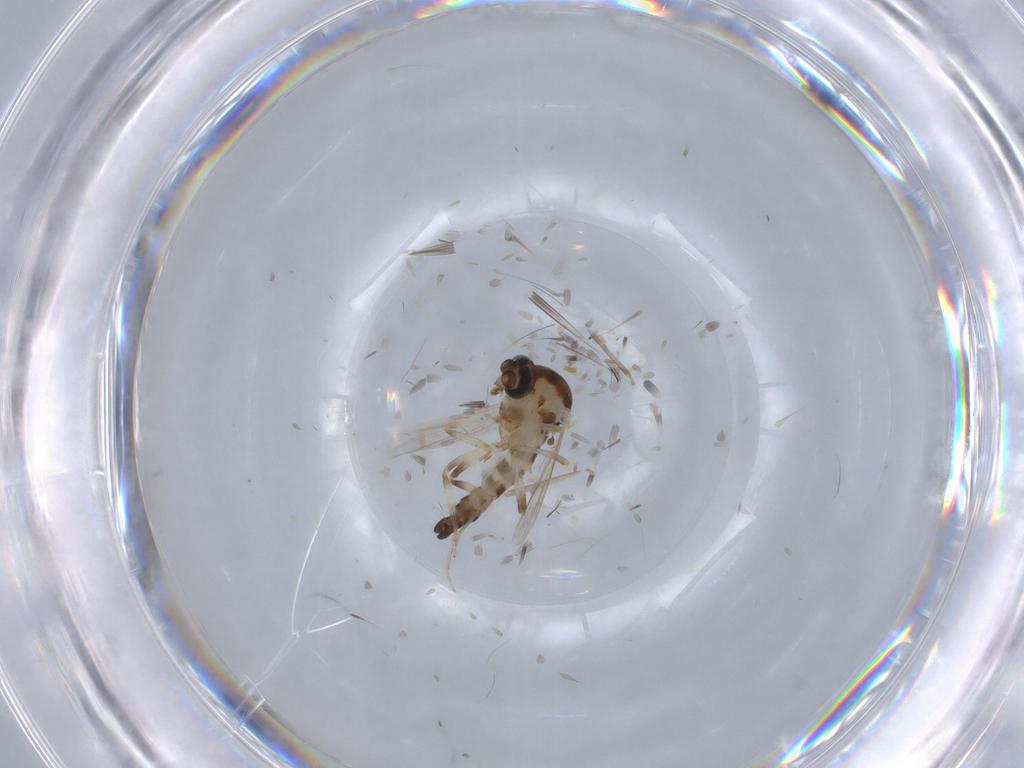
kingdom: Animalia
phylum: Arthropoda
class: Insecta
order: Diptera
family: Ceratopogonidae
